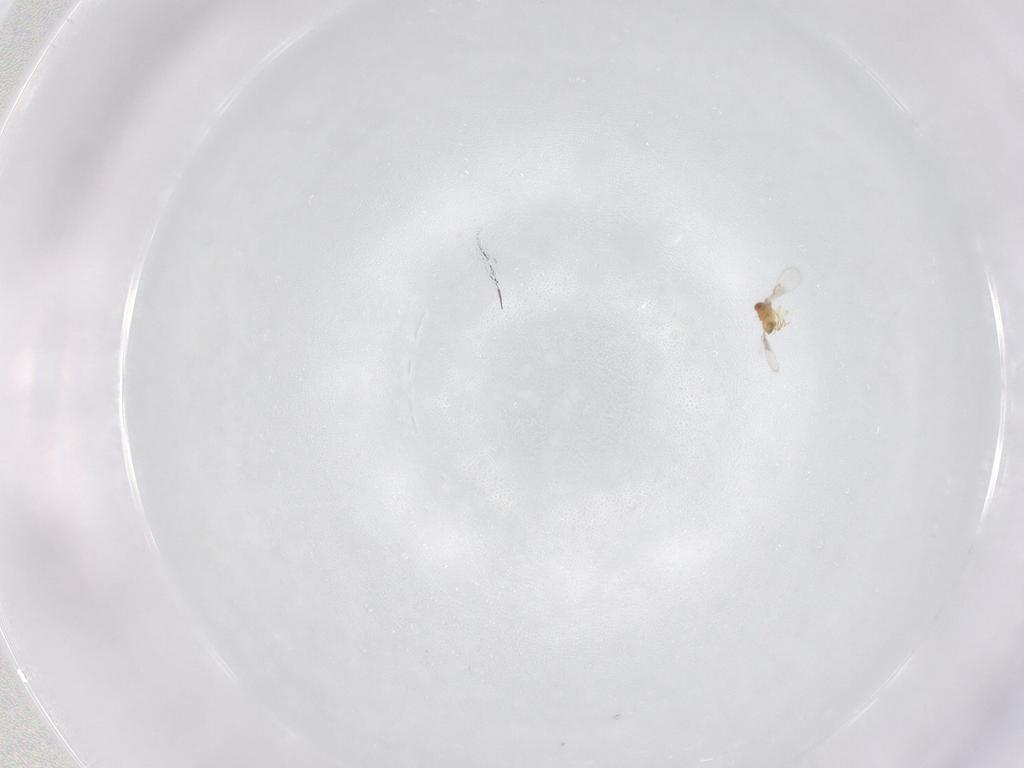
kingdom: Animalia
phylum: Arthropoda
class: Insecta
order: Hymenoptera
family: Trichogrammatidae
